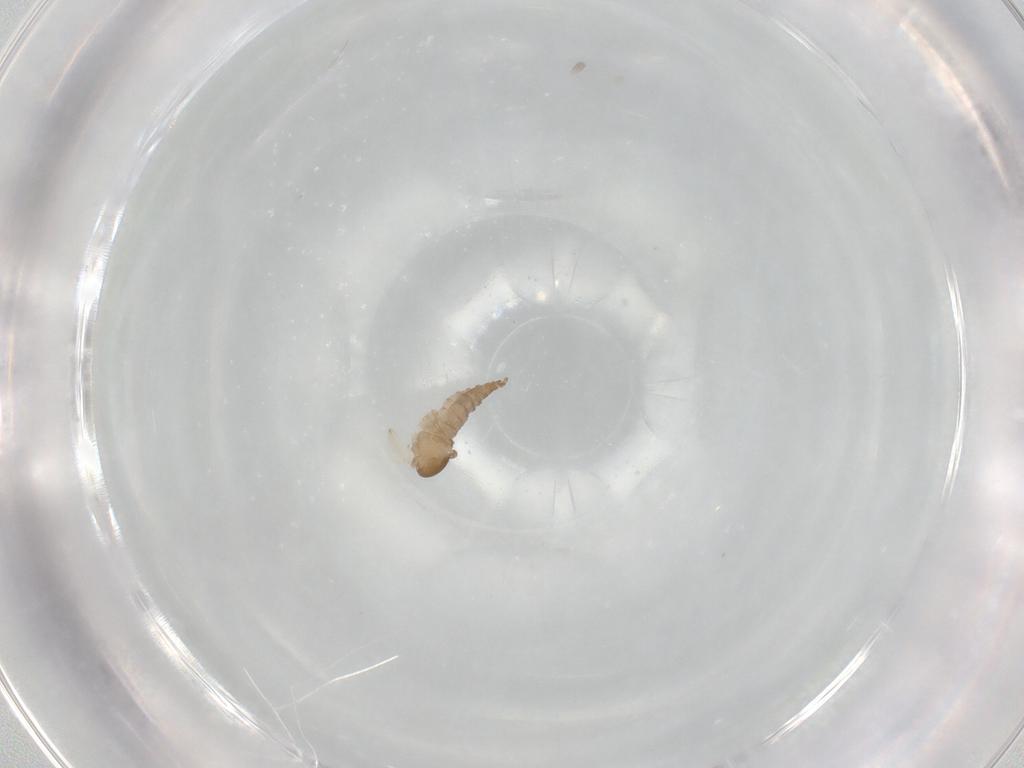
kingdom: Animalia
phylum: Arthropoda
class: Insecta
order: Diptera
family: Cecidomyiidae
